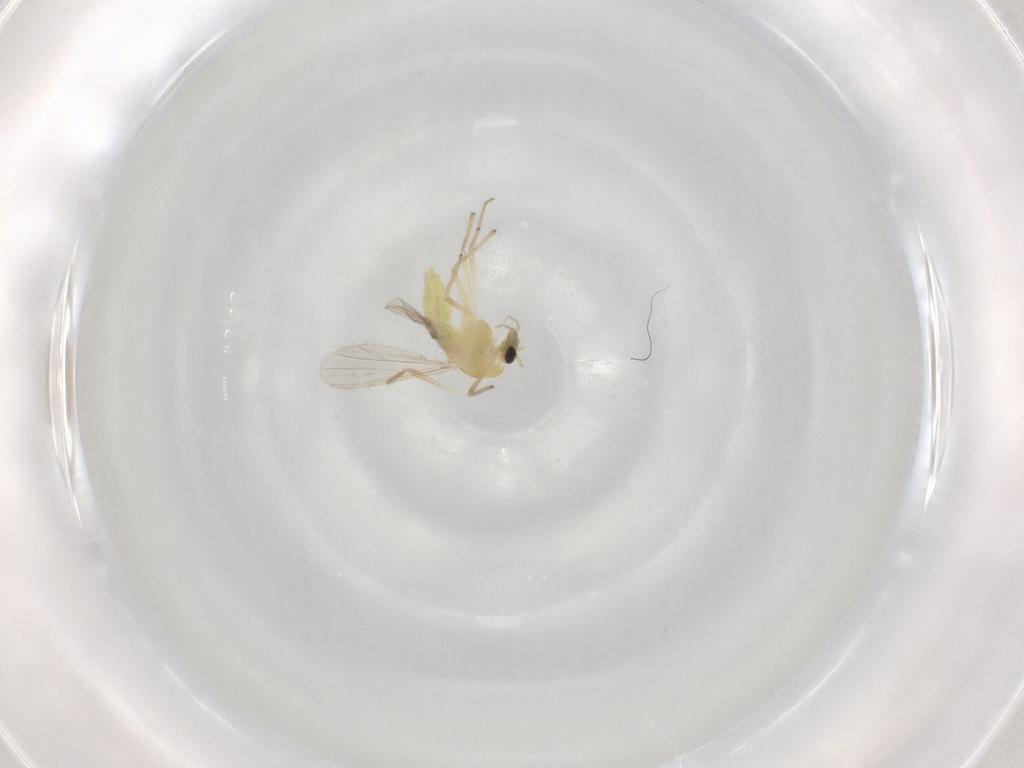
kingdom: Animalia
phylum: Arthropoda
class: Insecta
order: Diptera
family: Chironomidae
